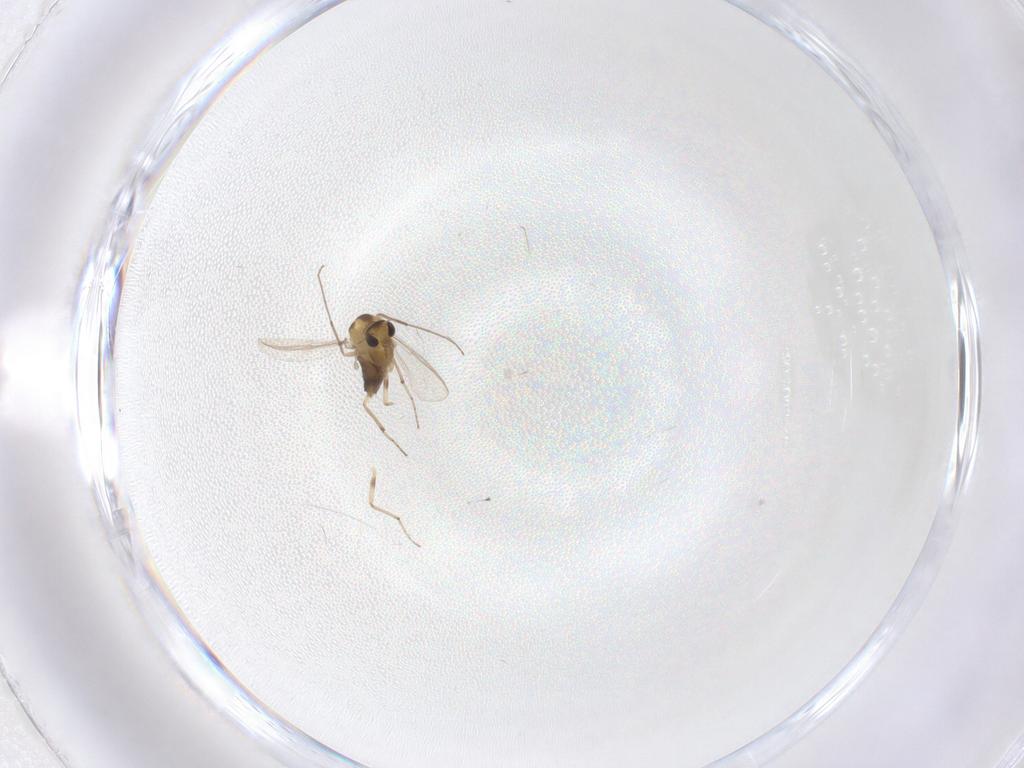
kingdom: Animalia
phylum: Arthropoda
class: Insecta
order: Diptera
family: Chironomidae
